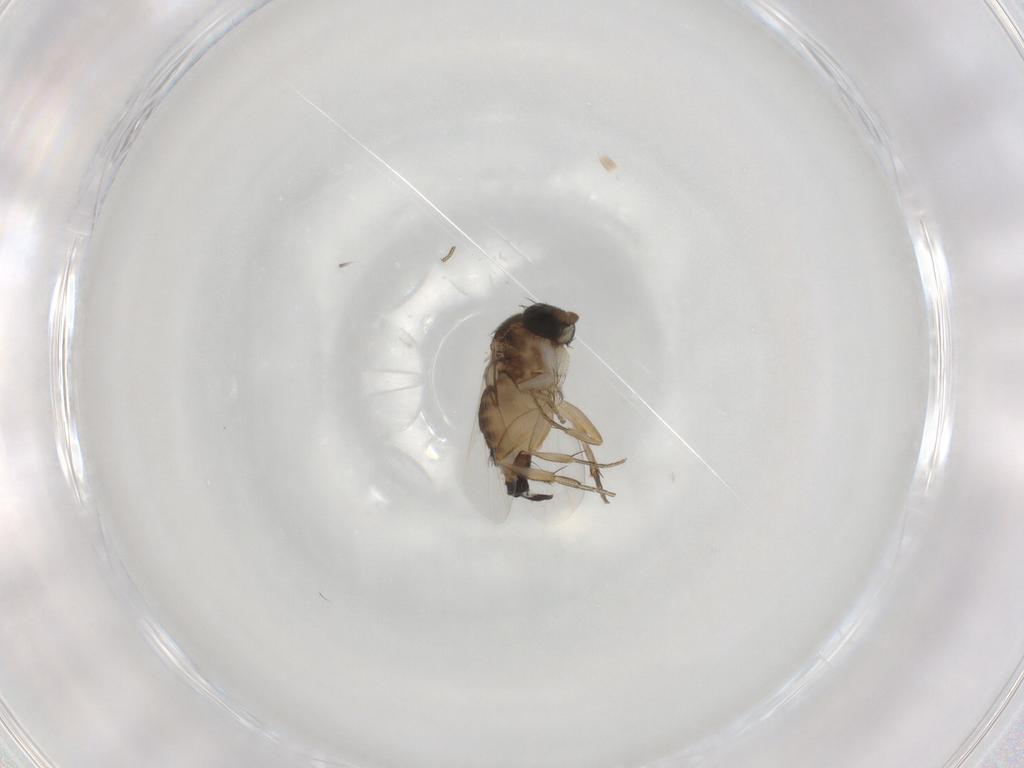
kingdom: Animalia
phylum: Arthropoda
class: Insecta
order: Diptera
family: Phoridae
